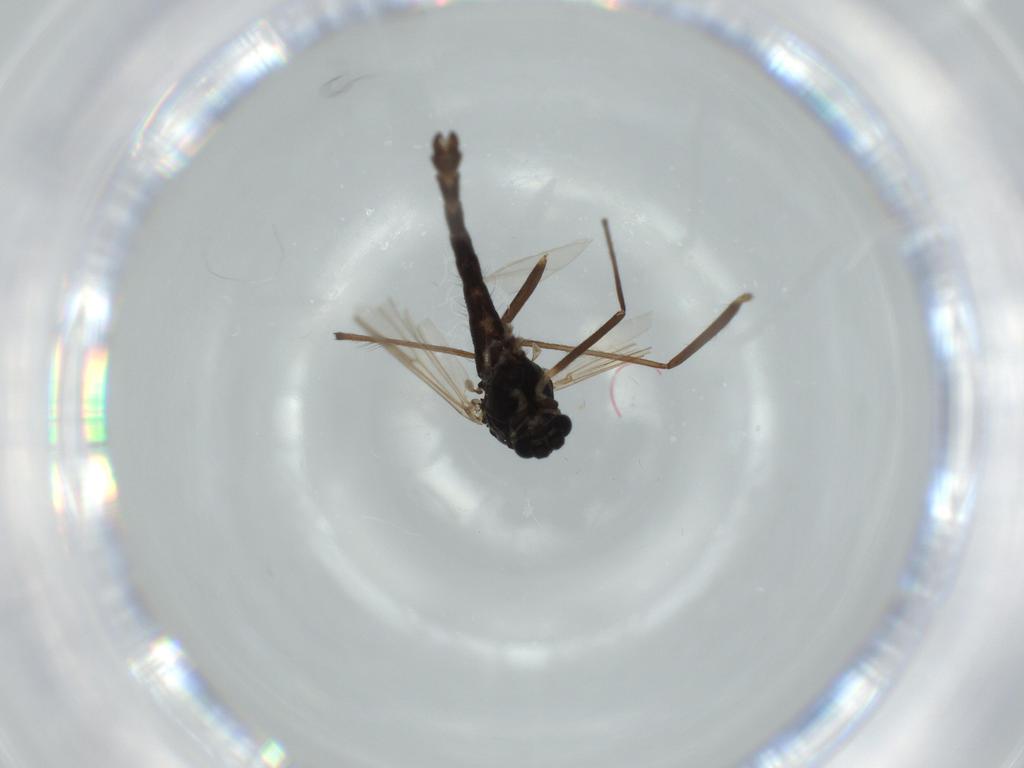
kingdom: Animalia
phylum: Arthropoda
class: Insecta
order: Diptera
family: Chironomidae
